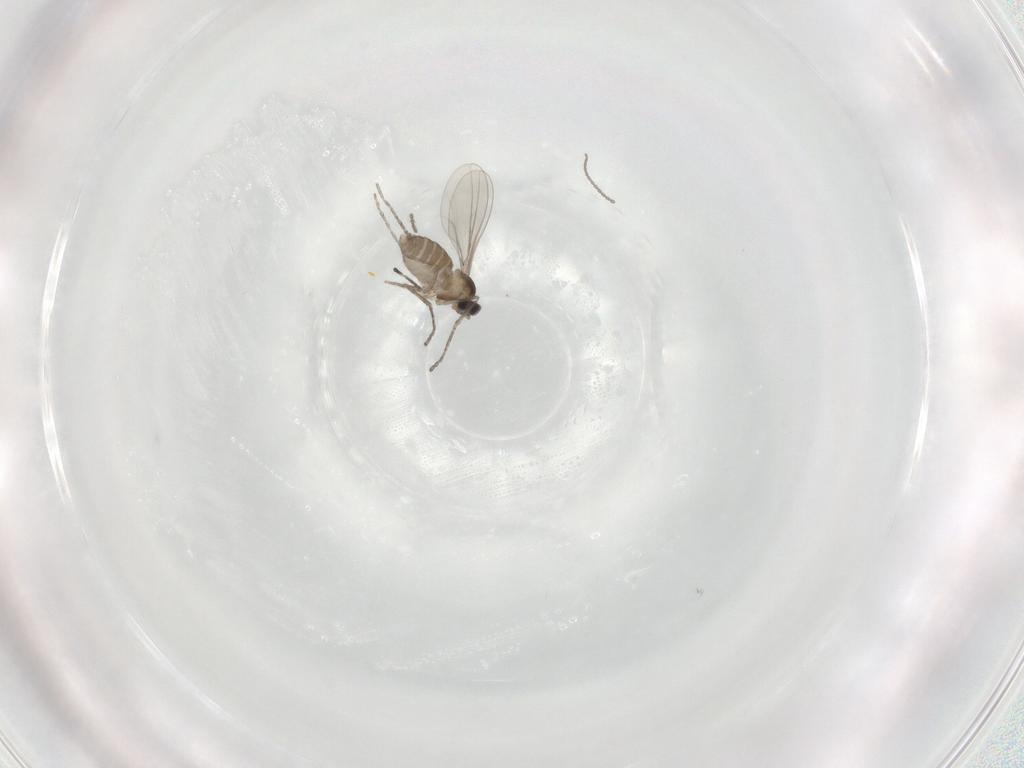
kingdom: Animalia
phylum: Arthropoda
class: Insecta
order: Diptera
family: Cecidomyiidae
